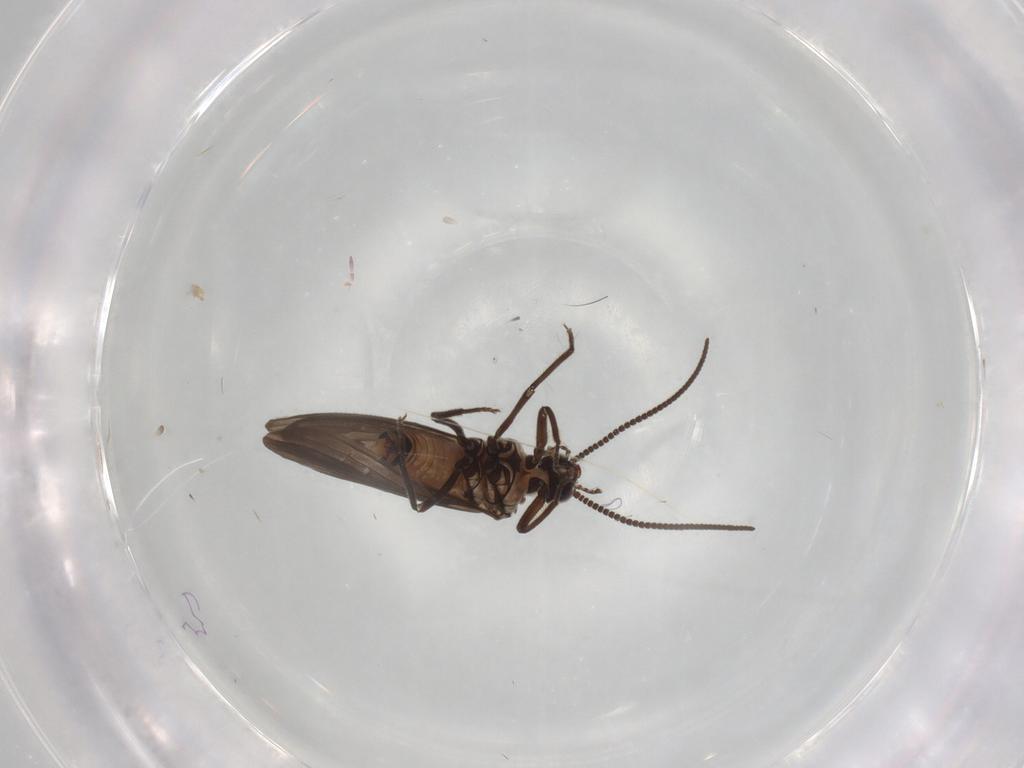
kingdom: Animalia
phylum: Arthropoda
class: Insecta
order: Neuroptera
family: Coniopterygidae
